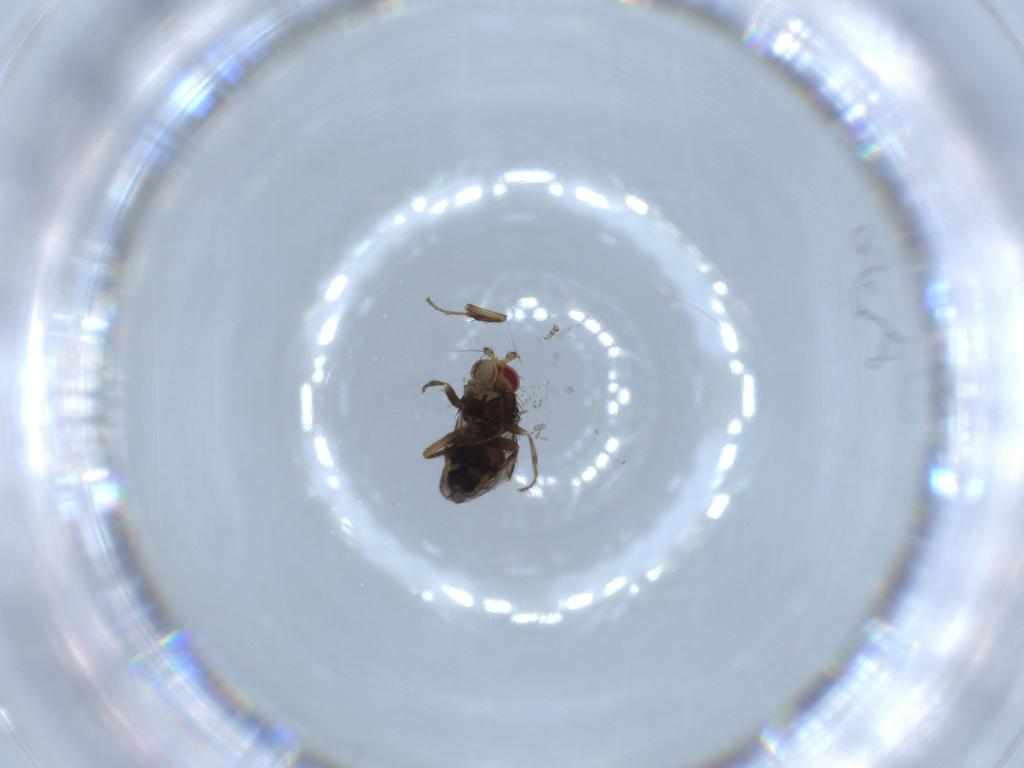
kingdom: Animalia
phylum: Arthropoda
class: Insecta
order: Diptera
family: Sphaeroceridae
